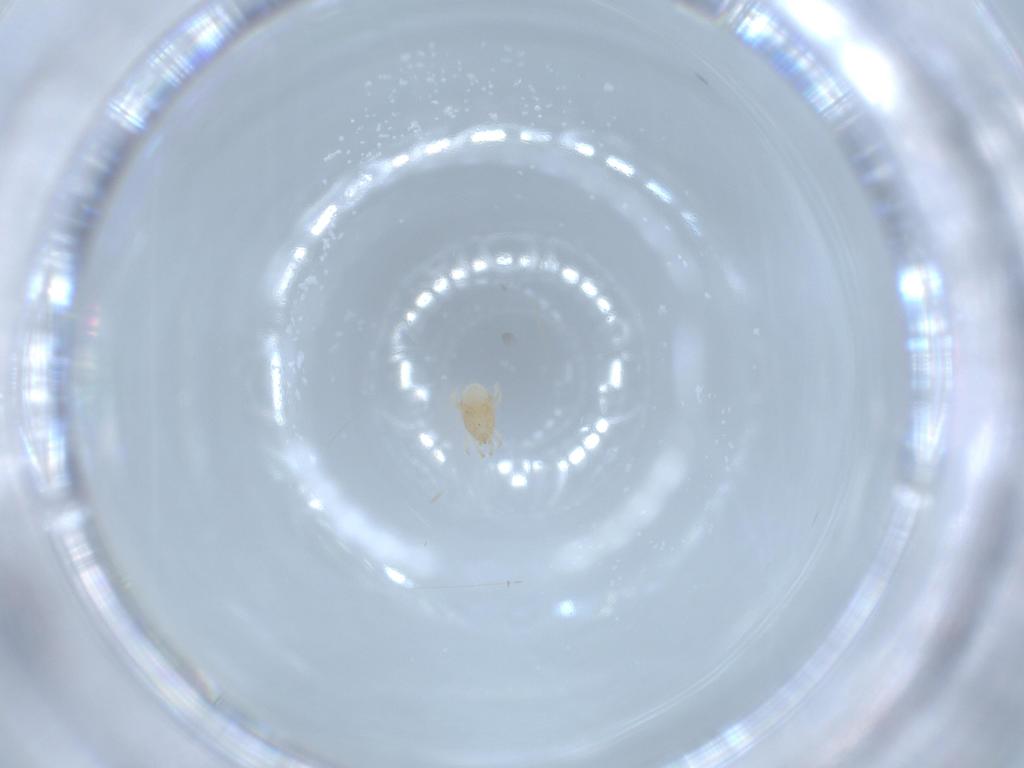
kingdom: Animalia
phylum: Arthropoda
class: Arachnida
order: Mesostigmata
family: Melicharidae
